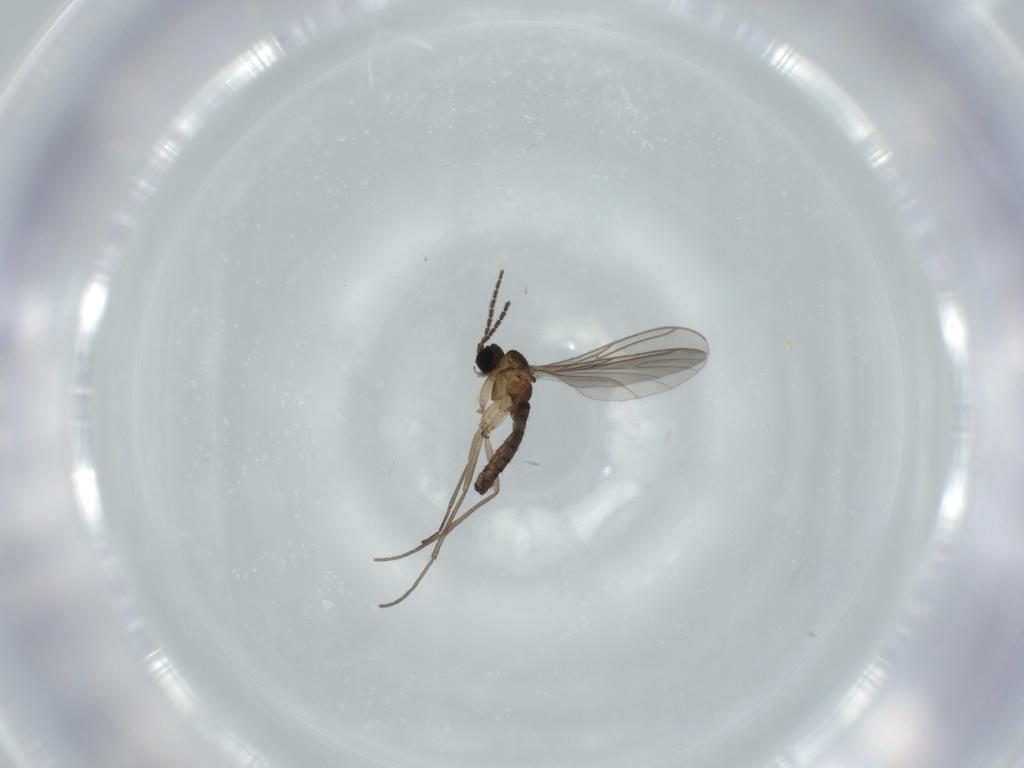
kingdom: Animalia
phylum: Arthropoda
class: Insecta
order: Diptera
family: Sciaridae
